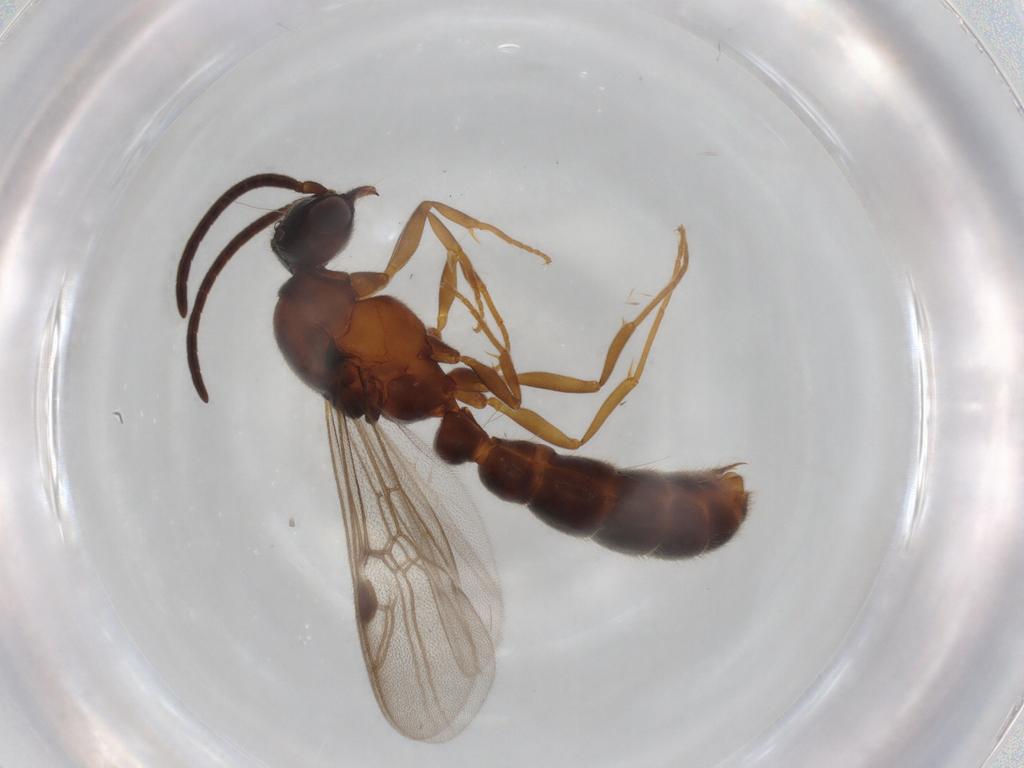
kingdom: Animalia
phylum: Arthropoda
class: Insecta
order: Hymenoptera
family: Formicidae
